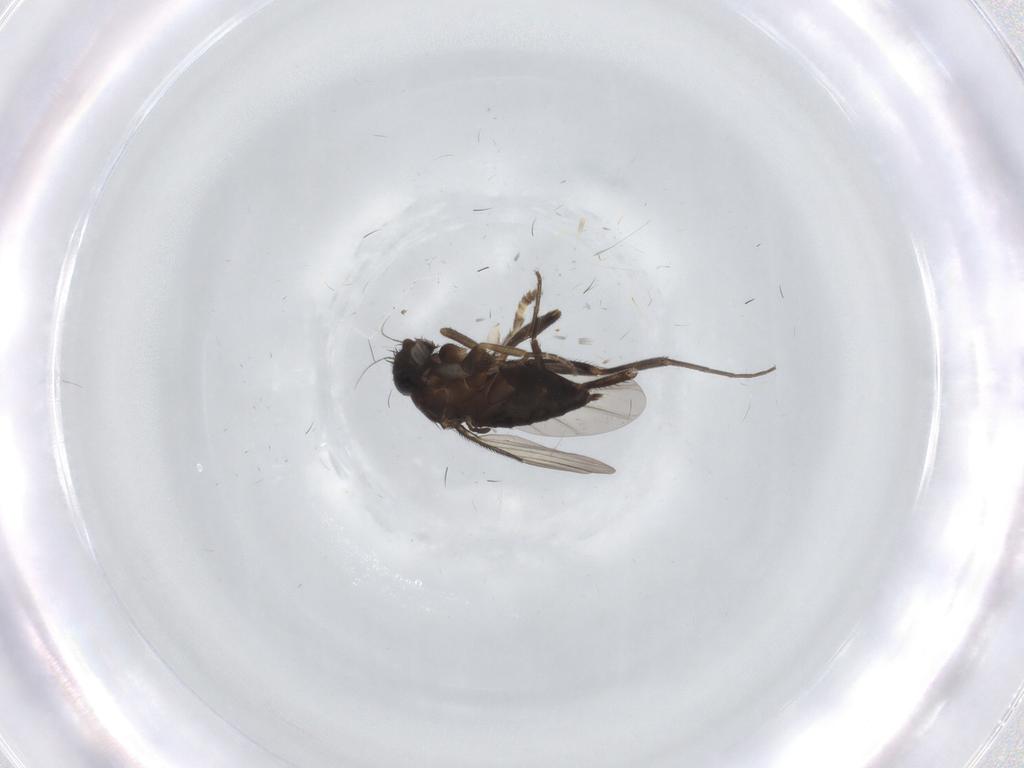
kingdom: Animalia
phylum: Arthropoda
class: Insecta
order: Diptera
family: Phoridae
